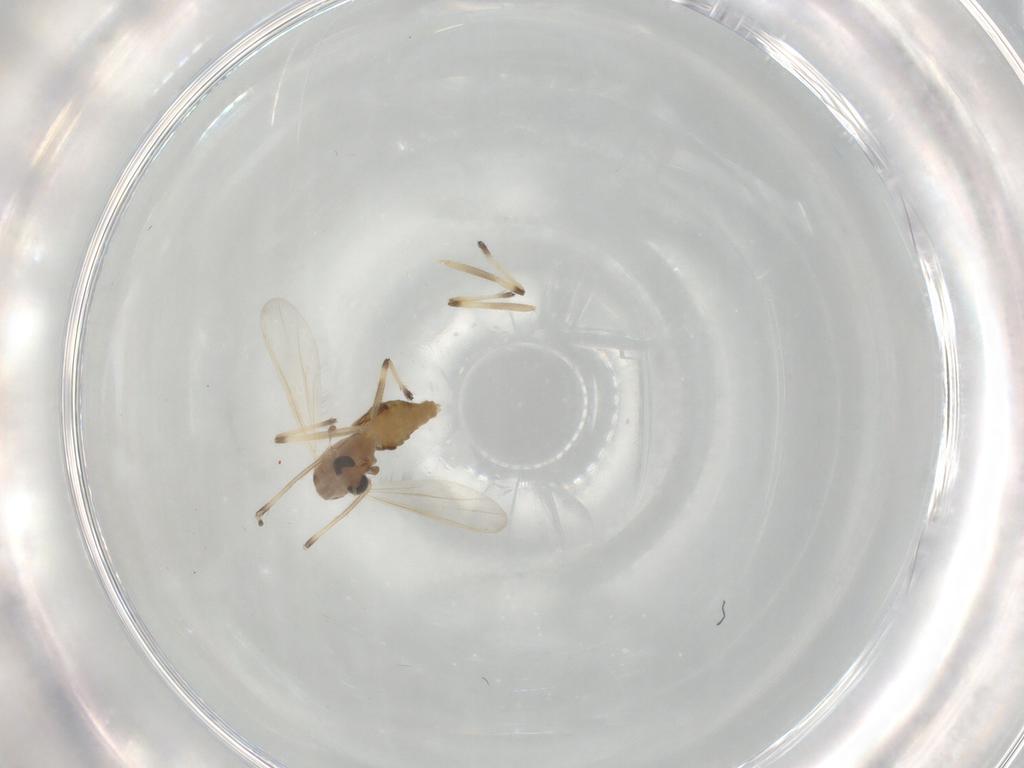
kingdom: Animalia
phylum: Arthropoda
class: Insecta
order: Diptera
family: Chironomidae
